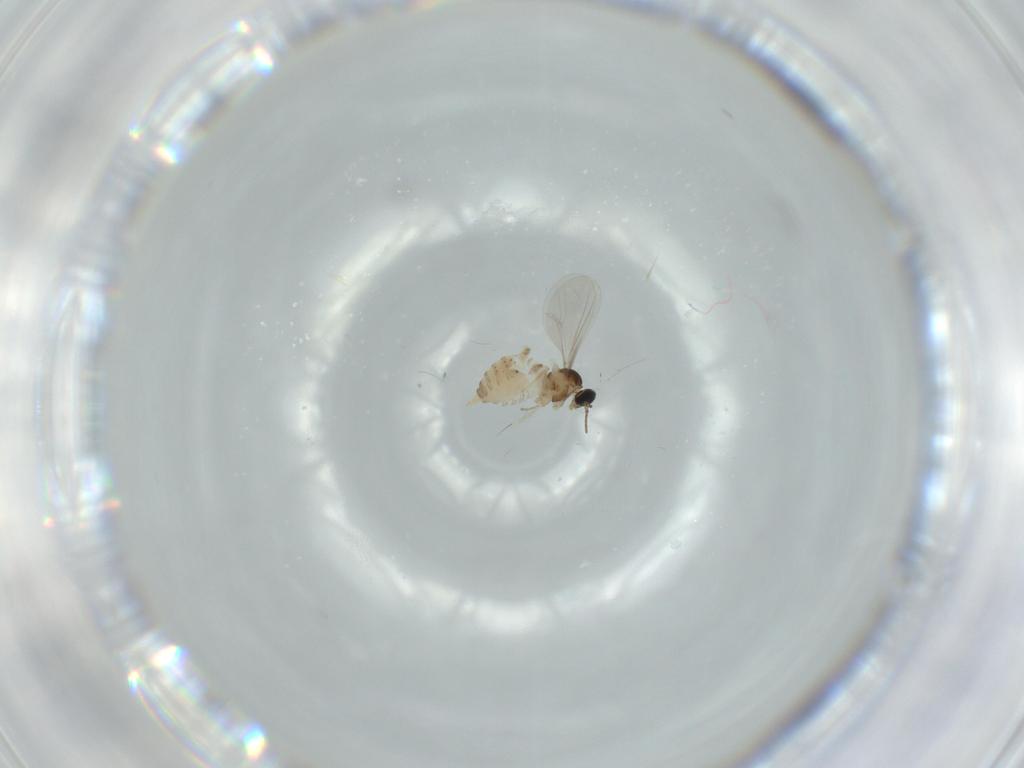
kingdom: Animalia
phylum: Arthropoda
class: Insecta
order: Diptera
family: Cecidomyiidae
